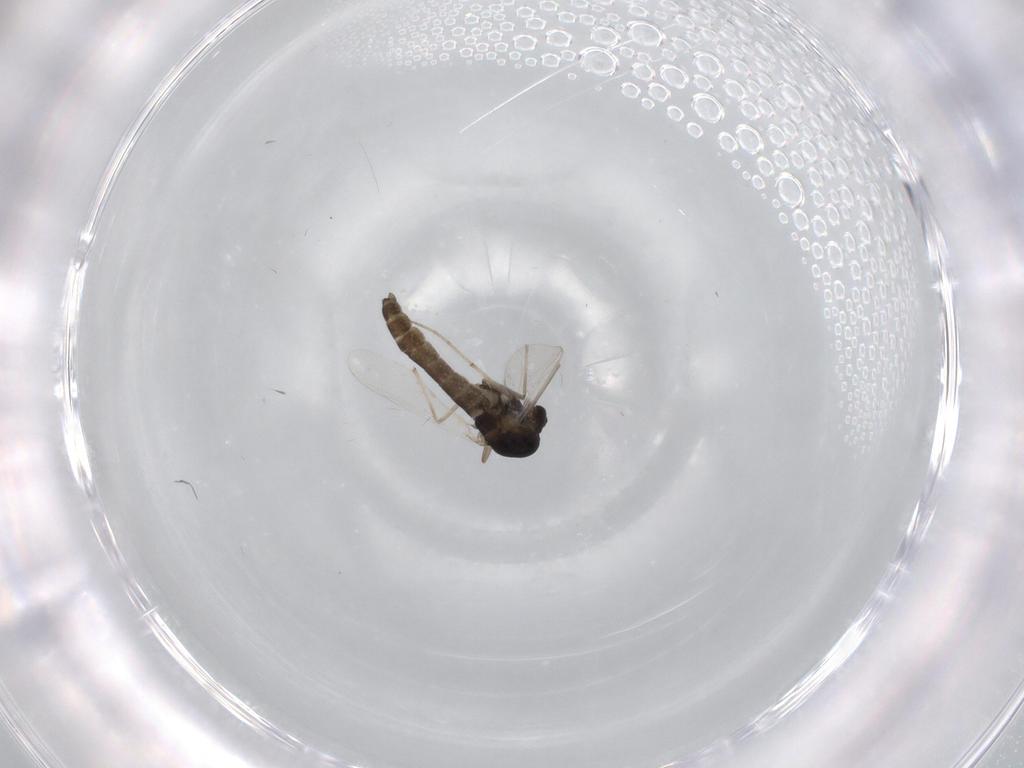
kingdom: Animalia
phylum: Arthropoda
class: Insecta
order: Diptera
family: Chironomidae
